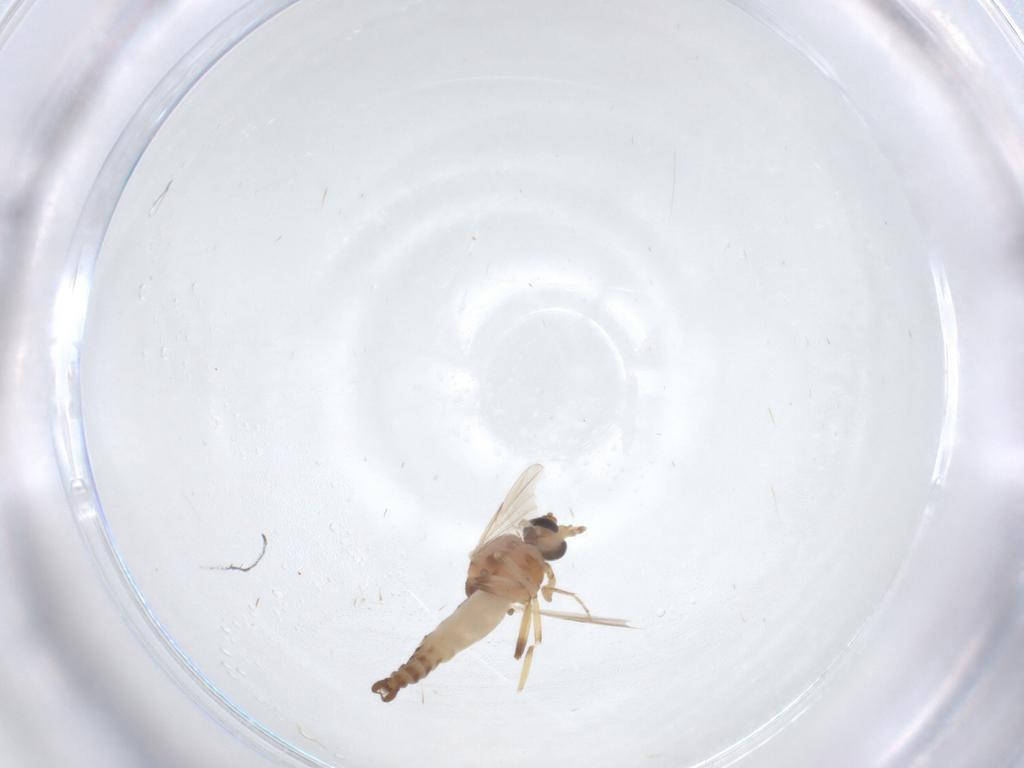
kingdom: Animalia
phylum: Arthropoda
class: Insecta
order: Diptera
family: Ceratopogonidae
